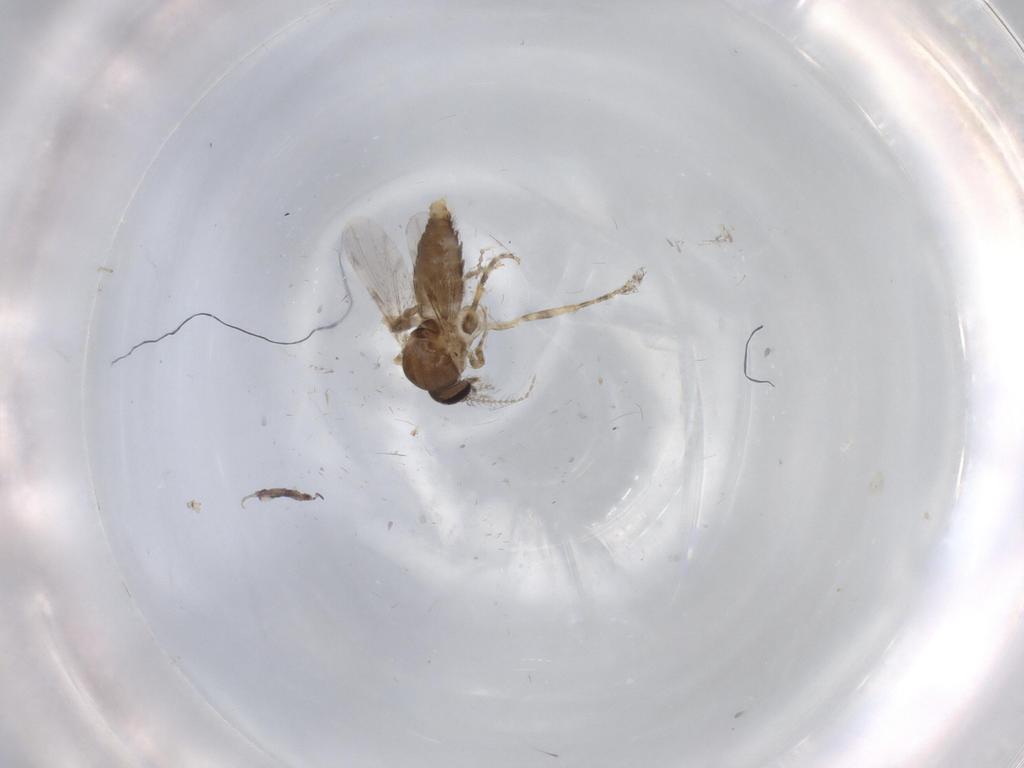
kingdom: Animalia
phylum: Arthropoda
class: Insecta
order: Diptera
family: Ceratopogonidae
